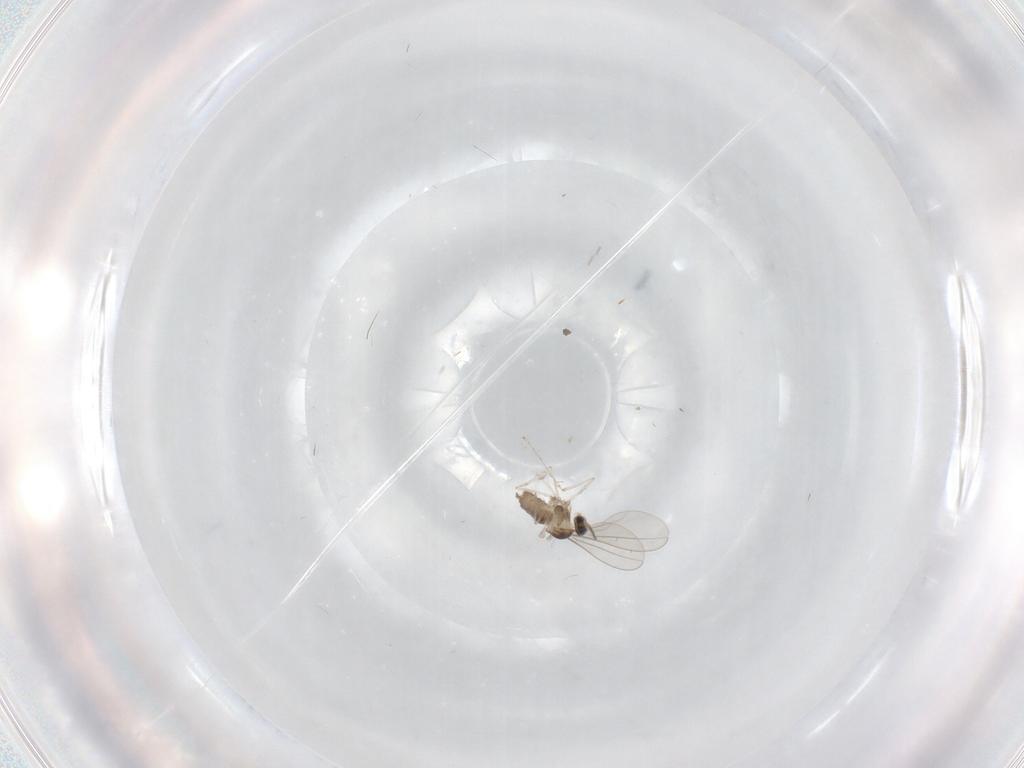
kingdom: Animalia
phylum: Arthropoda
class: Insecta
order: Diptera
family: Cecidomyiidae
